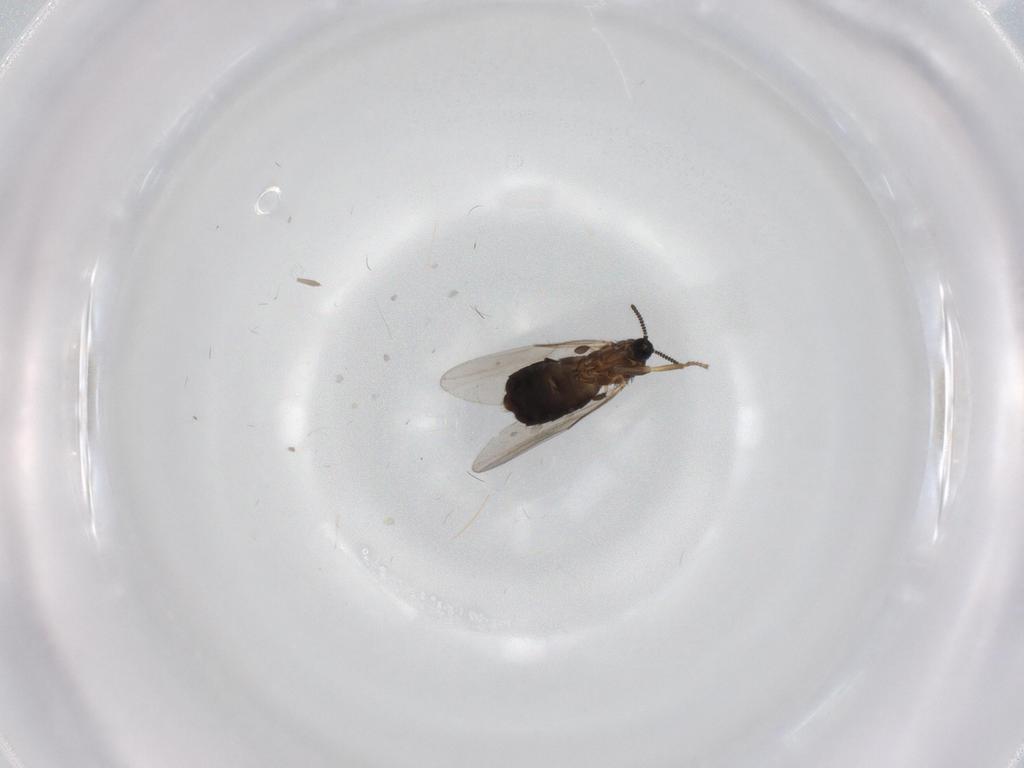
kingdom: Animalia
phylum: Arthropoda
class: Insecta
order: Diptera
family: Scatopsidae
